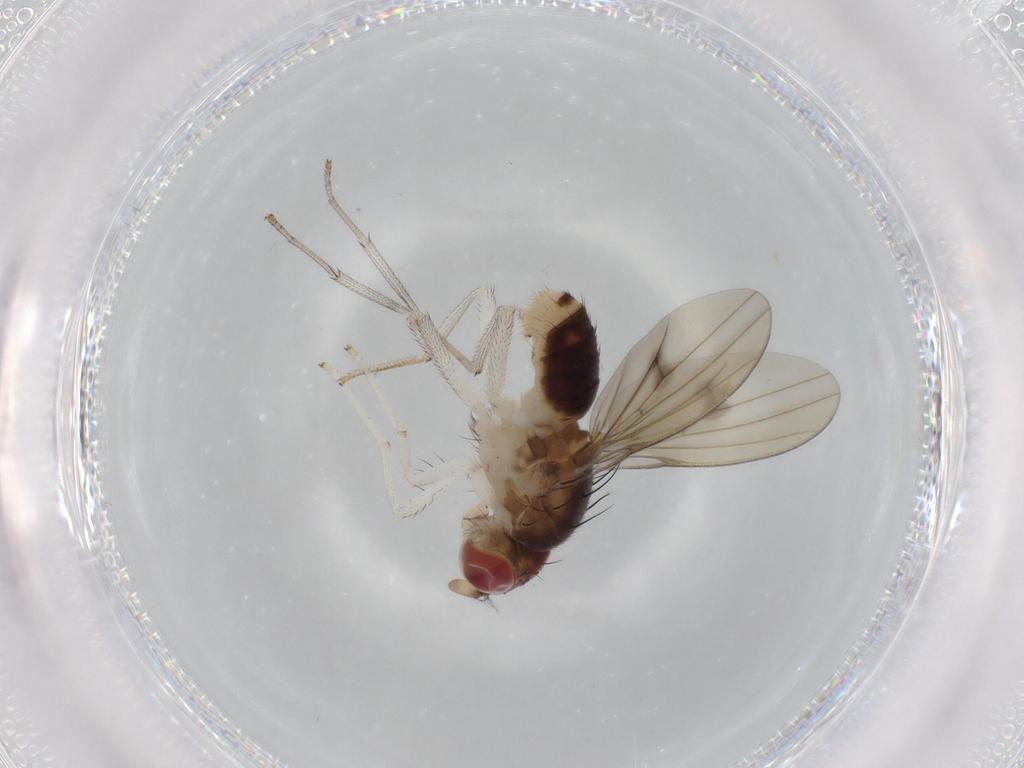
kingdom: Animalia
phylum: Arthropoda
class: Insecta
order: Diptera
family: Lauxaniidae
